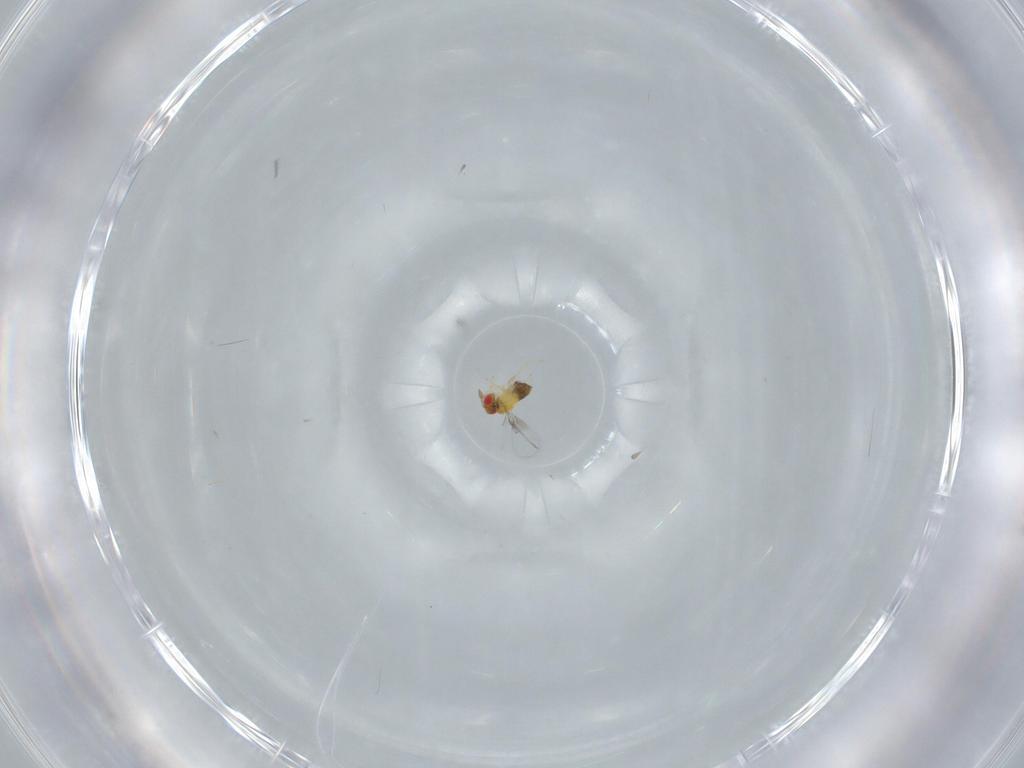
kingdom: Animalia
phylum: Arthropoda
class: Insecta
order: Hymenoptera
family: Trichogrammatidae
